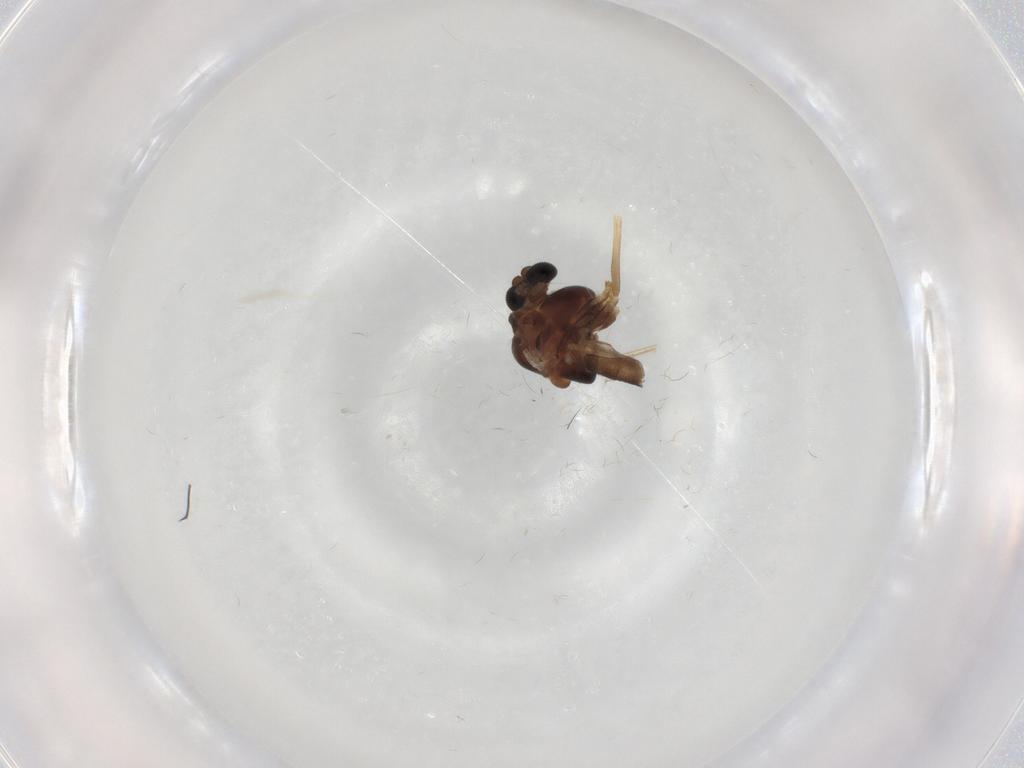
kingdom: Animalia
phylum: Arthropoda
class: Insecta
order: Diptera
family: Chironomidae
